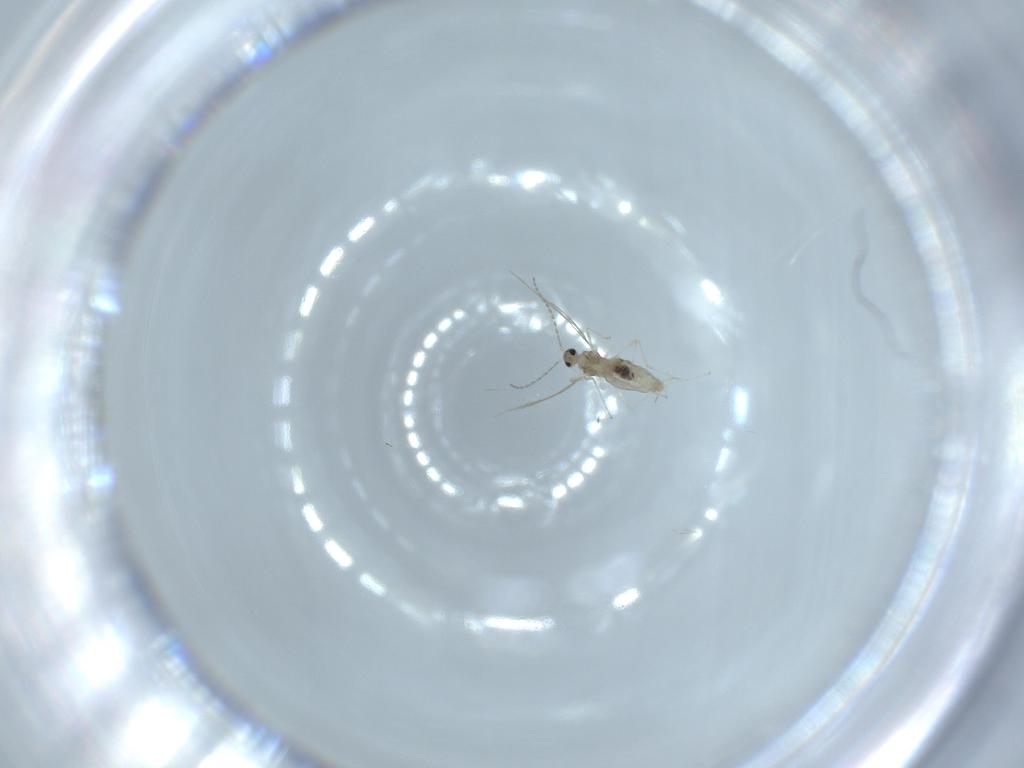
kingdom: Animalia
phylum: Arthropoda
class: Insecta
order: Diptera
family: Cecidomyiidae
